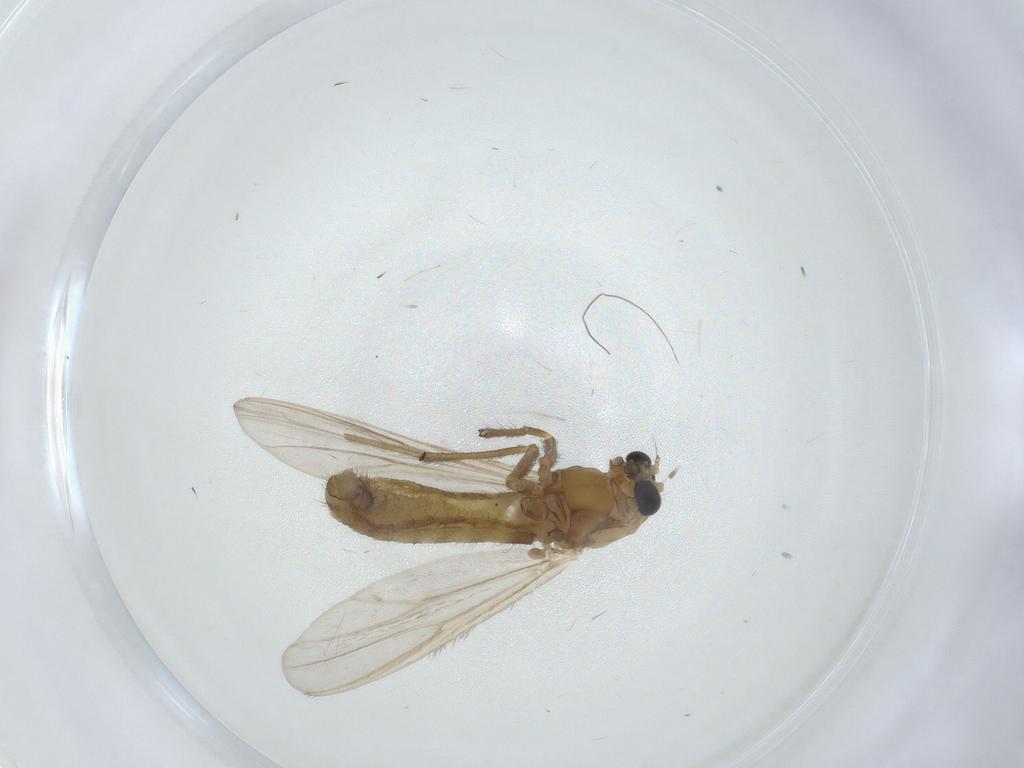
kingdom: Animalia
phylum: Arthropoda
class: Insecta
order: Diptera
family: Chironomidae
